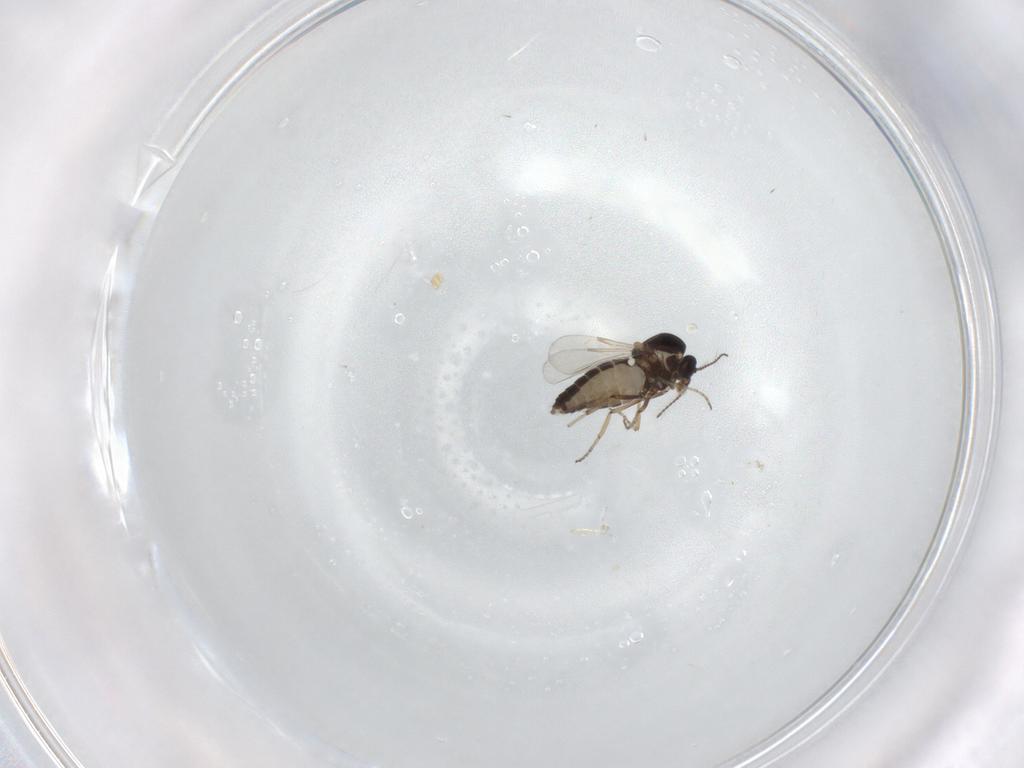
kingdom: Animalia
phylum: Arthropoda
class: Insecta
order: Diptera
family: Ceratopogonidae
